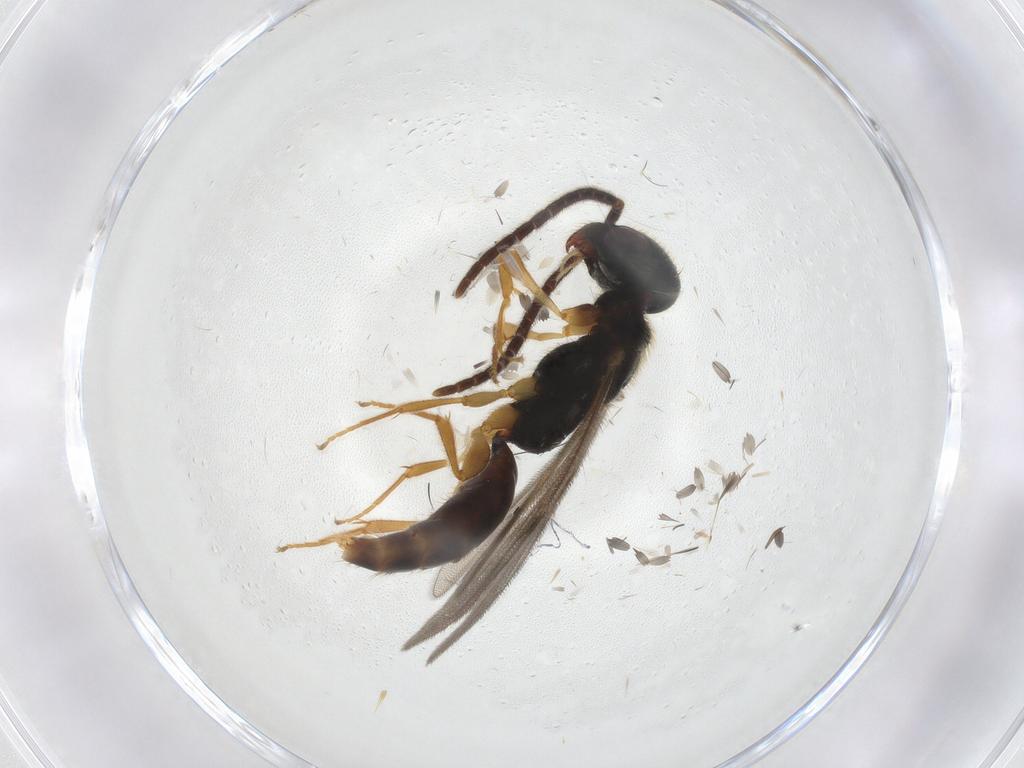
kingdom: Animalia
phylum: Arthropoda
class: Insecta
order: Hymenoptera
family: Bethylidae
